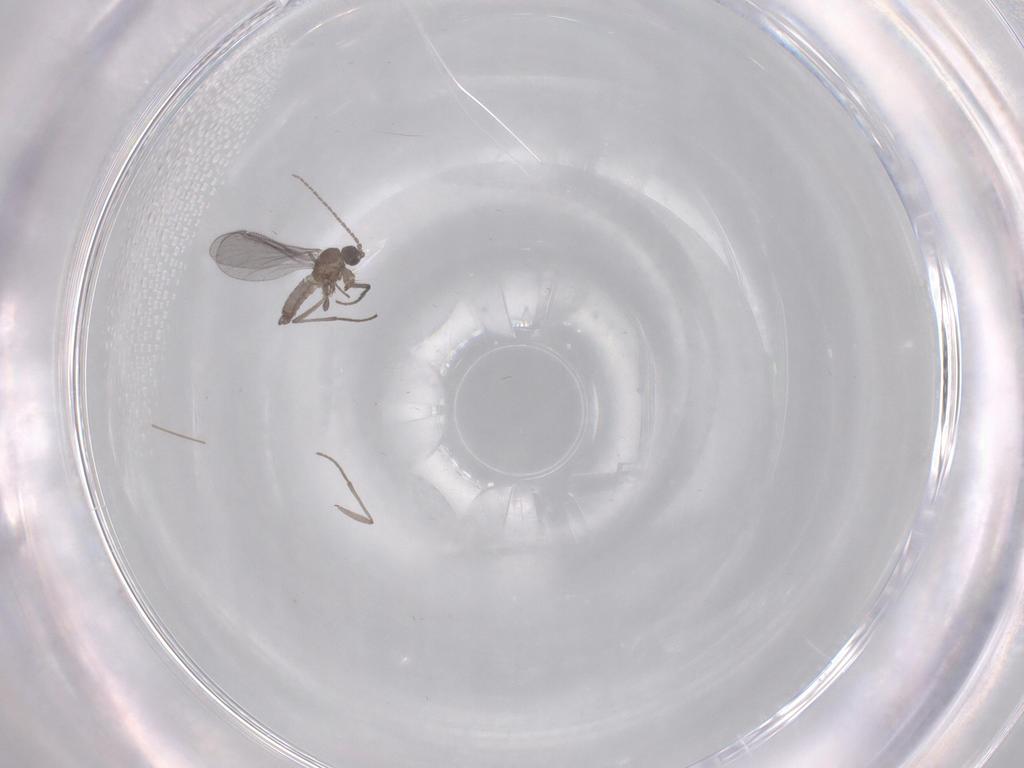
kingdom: Animalia
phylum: Arthropoda
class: Insecta
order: Diptera
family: Sciaridae
